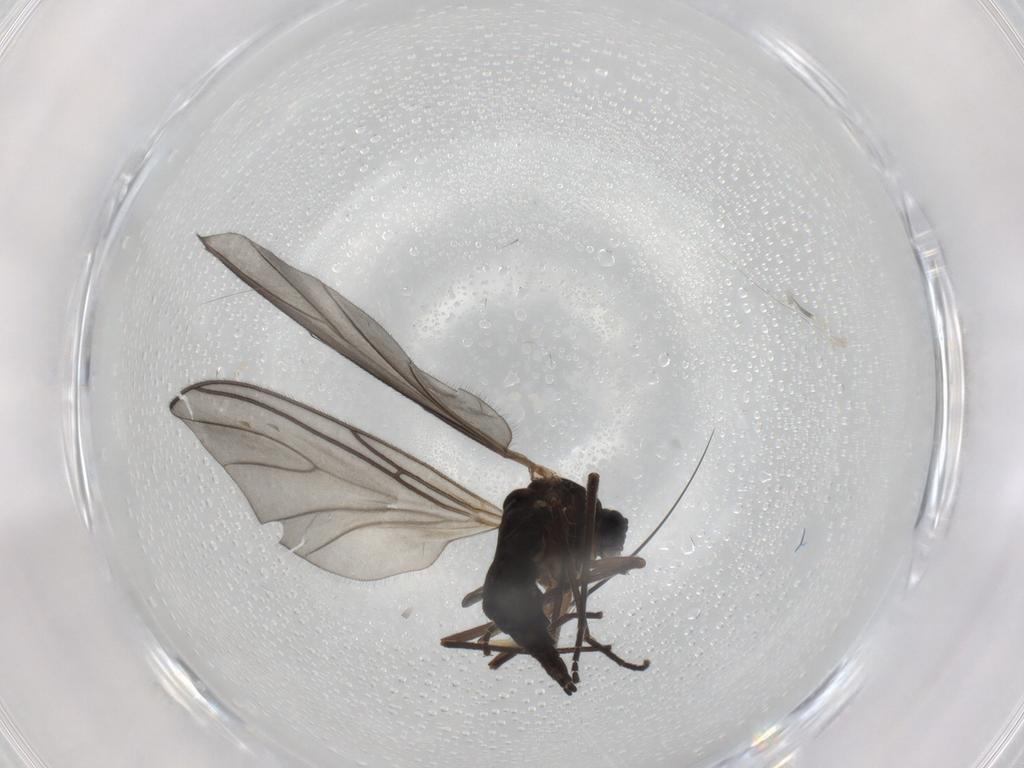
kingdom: Animalia
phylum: Arthropoda
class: Insecta
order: Diptera
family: Sciaridae
